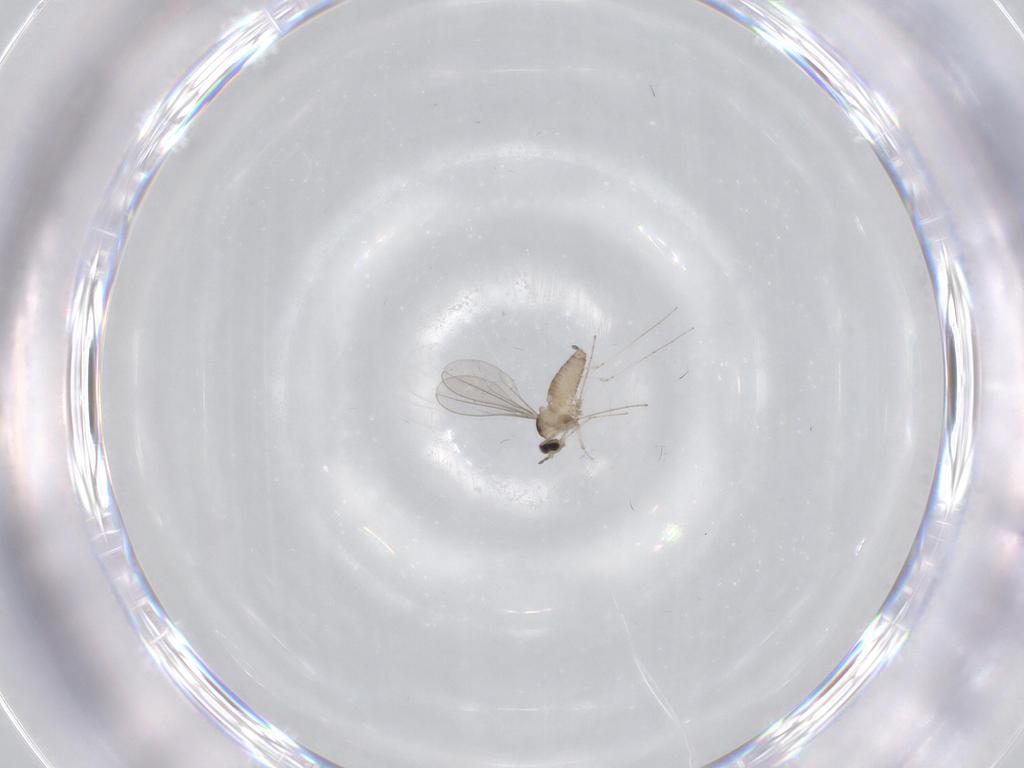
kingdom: Animalia
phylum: Arthropoda
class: Insecta
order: Diptera
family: Cecidomyiidae
